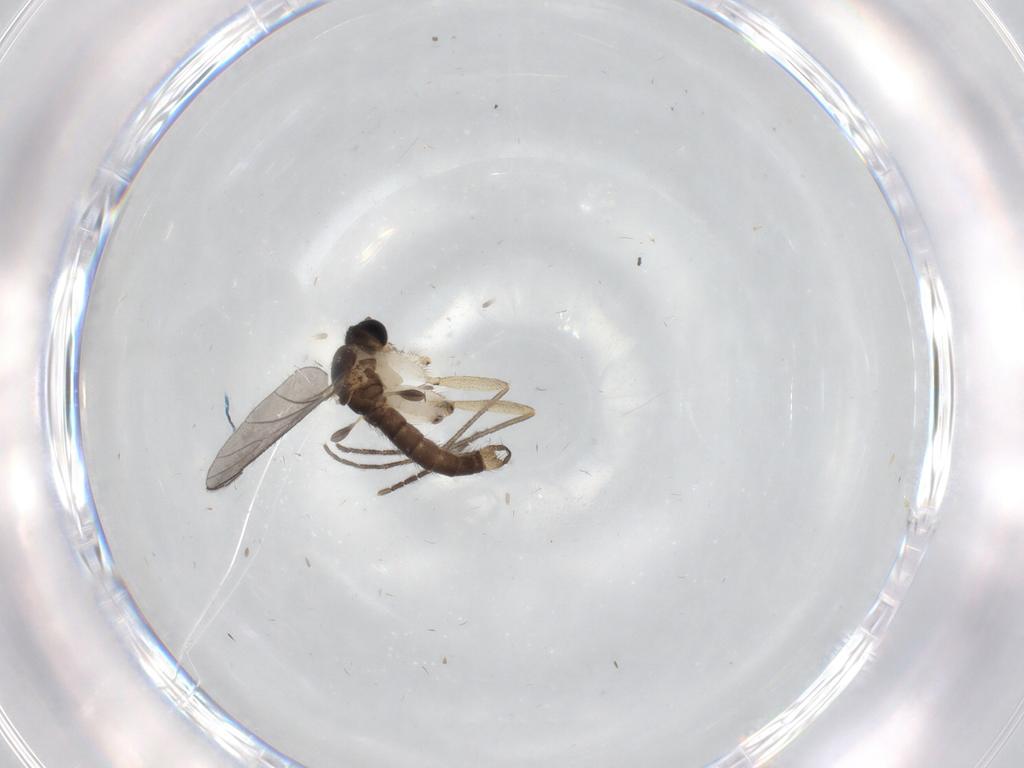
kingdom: Animalia
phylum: Arthropoda
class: Insecta
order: Diptera
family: Sciaridae
